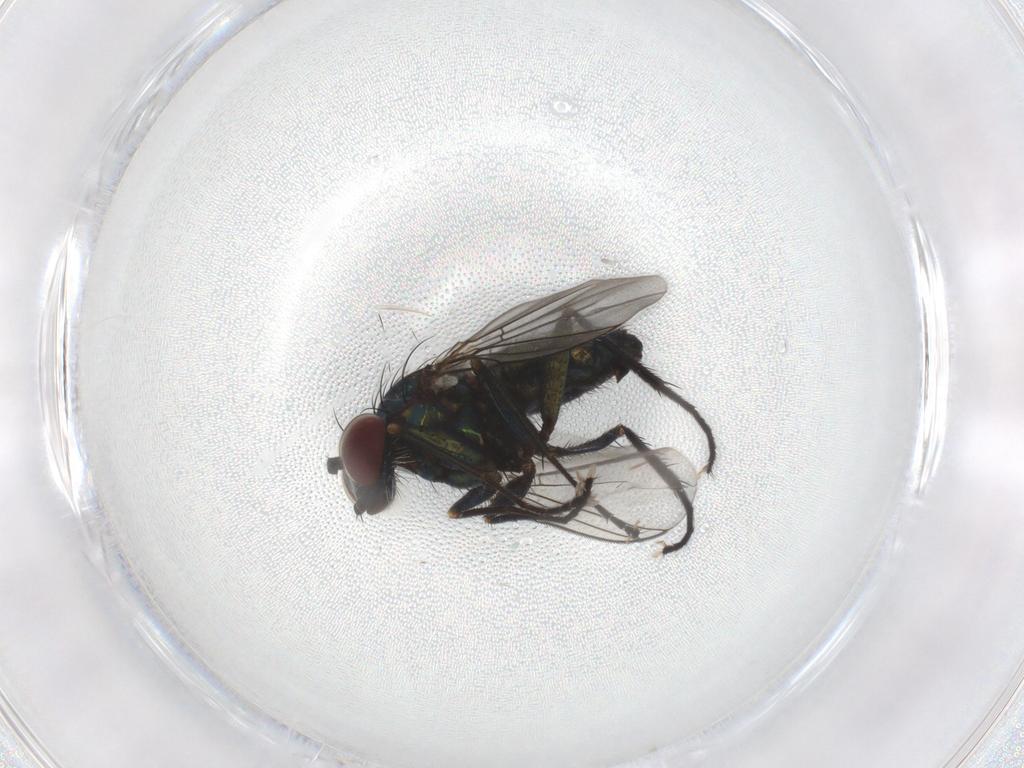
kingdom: Animalia
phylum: Arthropoda
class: Insecta
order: Diptera
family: Dolichopodidae
